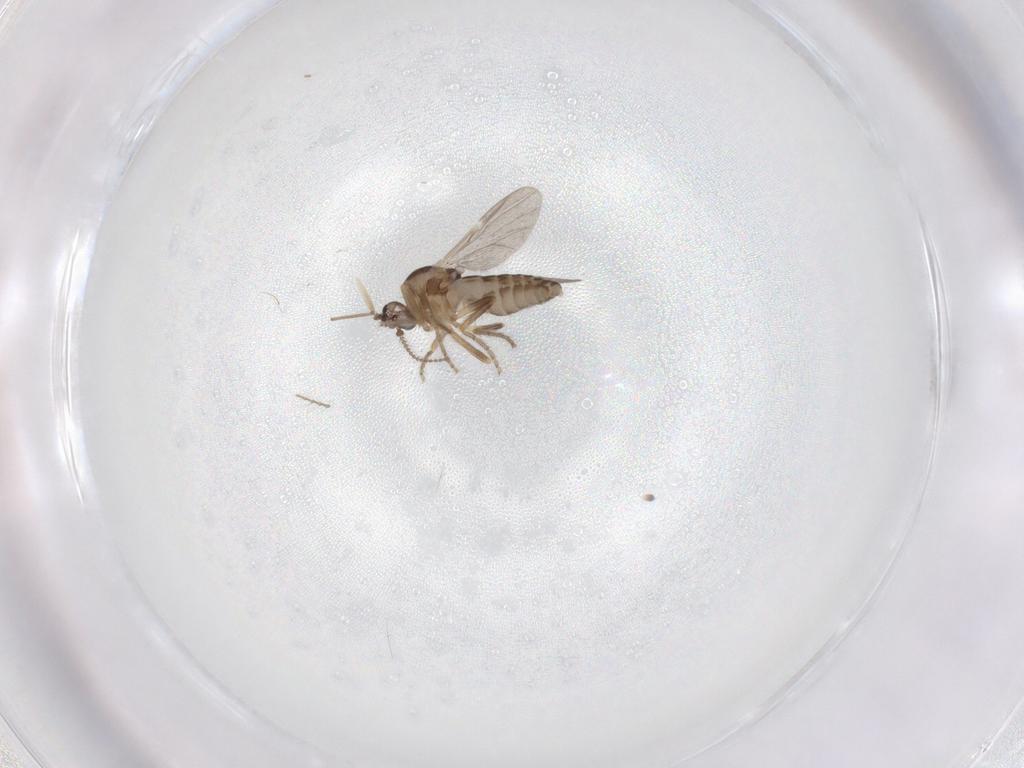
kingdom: Animalia
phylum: Arthropoda
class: Insecta
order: Diptera
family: Ceratopogonidae
